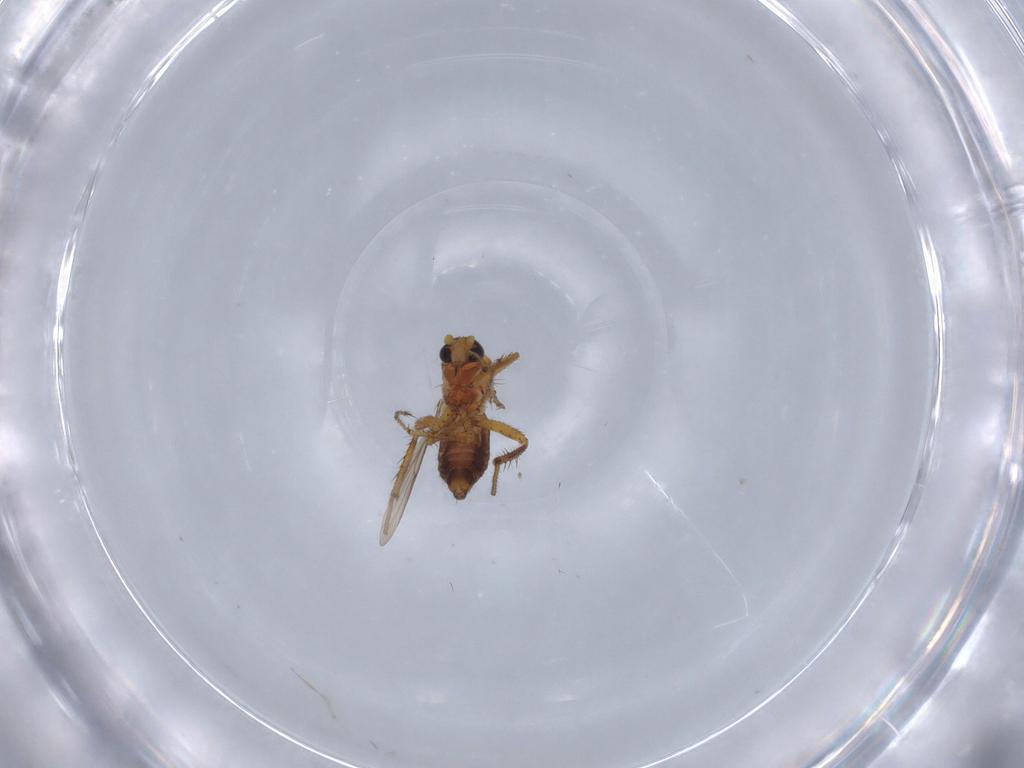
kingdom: Animalia
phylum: Arthropoda
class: Insecta
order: Diptera
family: Chironomidae
